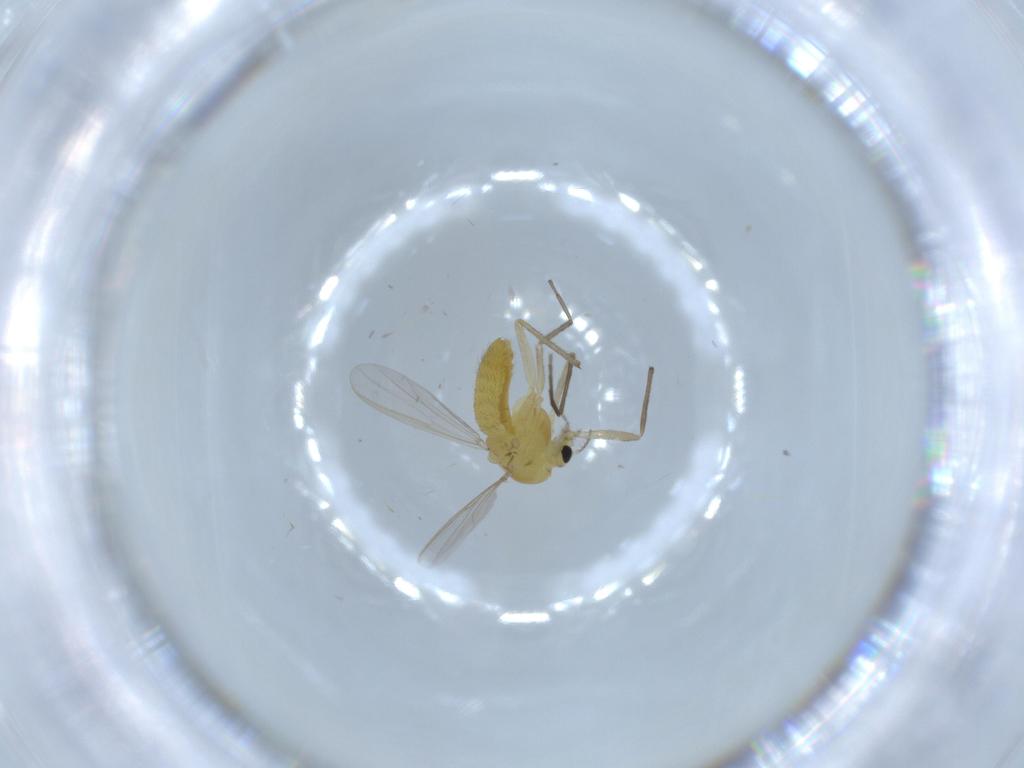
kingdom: Animalia
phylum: Arthropoda
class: Insecta
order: Diptera
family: Chironomidae
